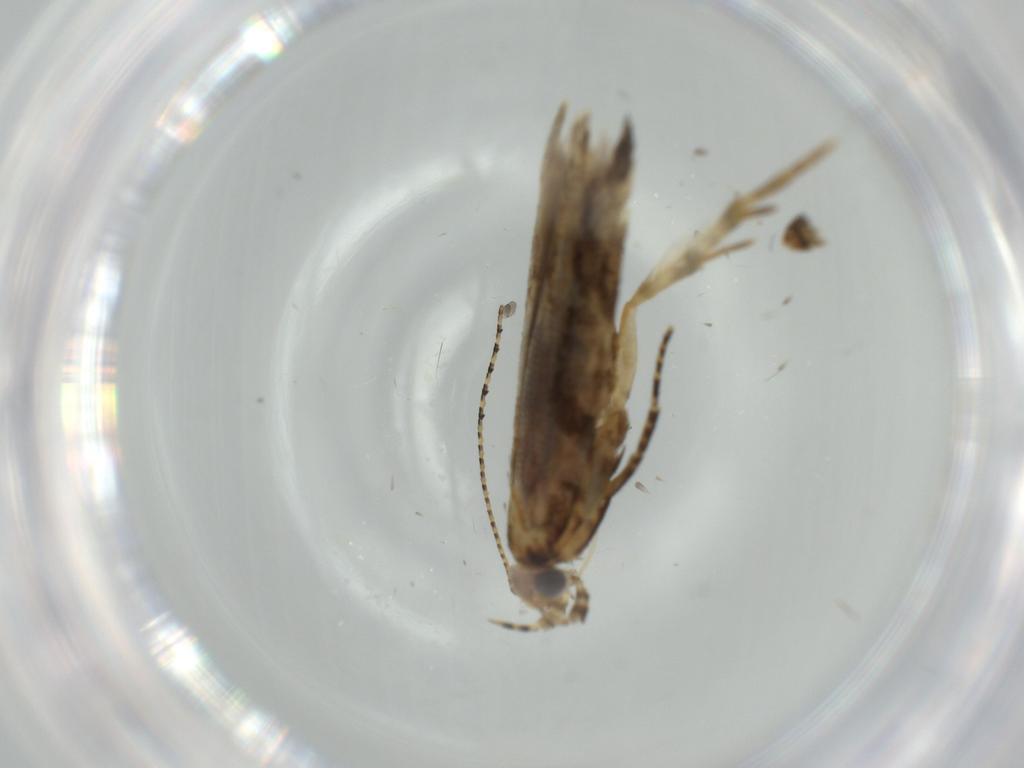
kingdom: Animalia
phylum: Arthropoda
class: Insecta
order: Lepidoptera
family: Gelechiidae
